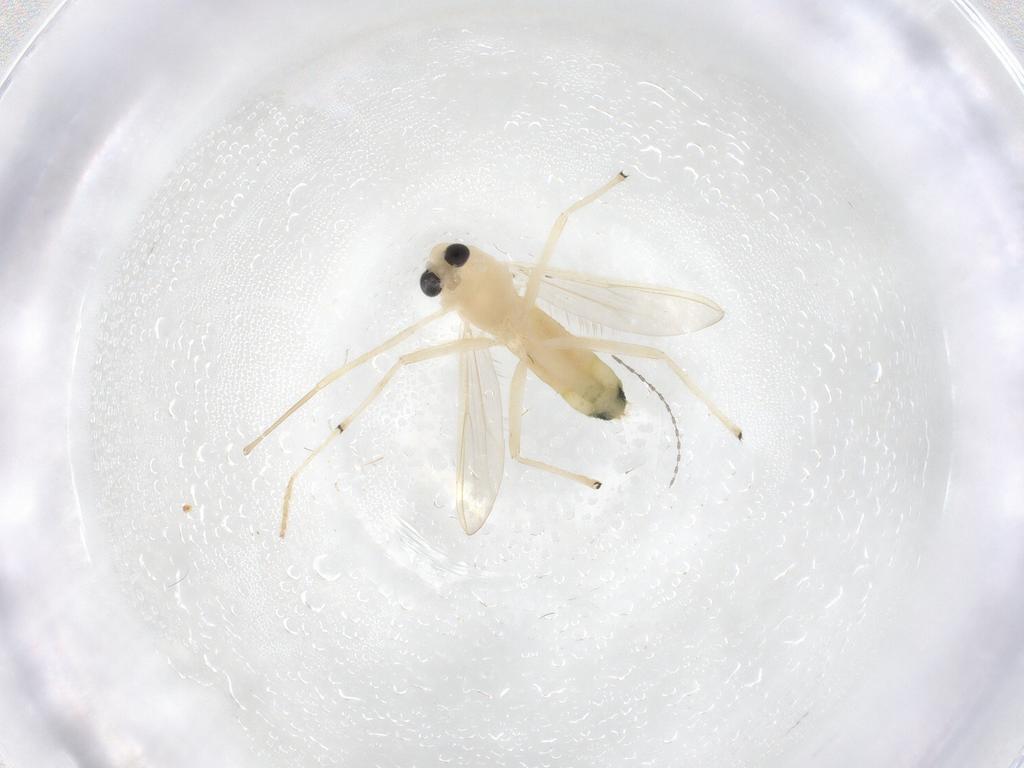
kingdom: Animalia
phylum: Arthropoda
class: Insecta
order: Diptera
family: Chironomidae
